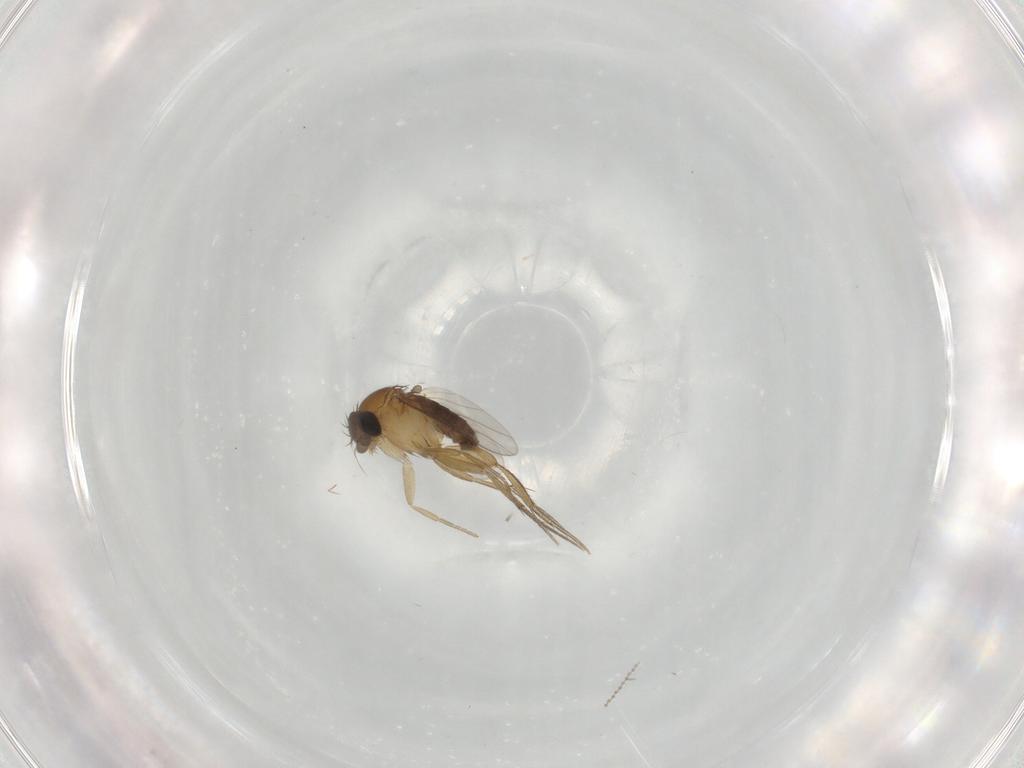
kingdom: Animalia
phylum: Arthropoda
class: Insecta
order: Diptera
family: Phoridae
